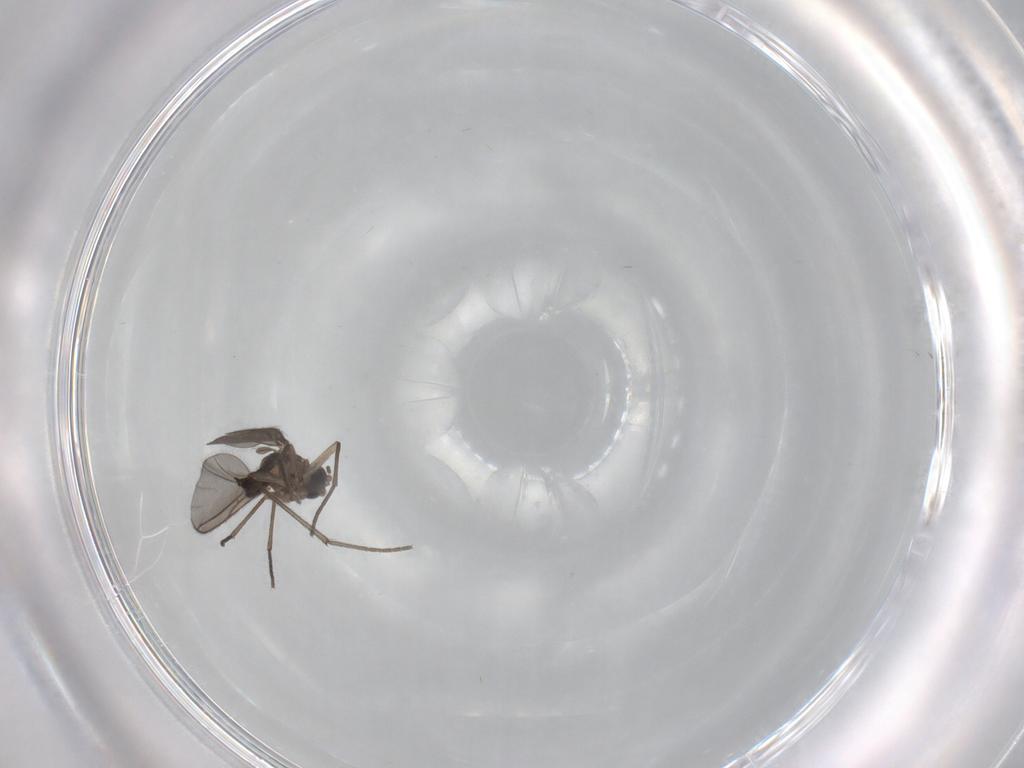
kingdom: Animalia
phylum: Arthropoda
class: Insecta
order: Diptera
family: Sciaridae
